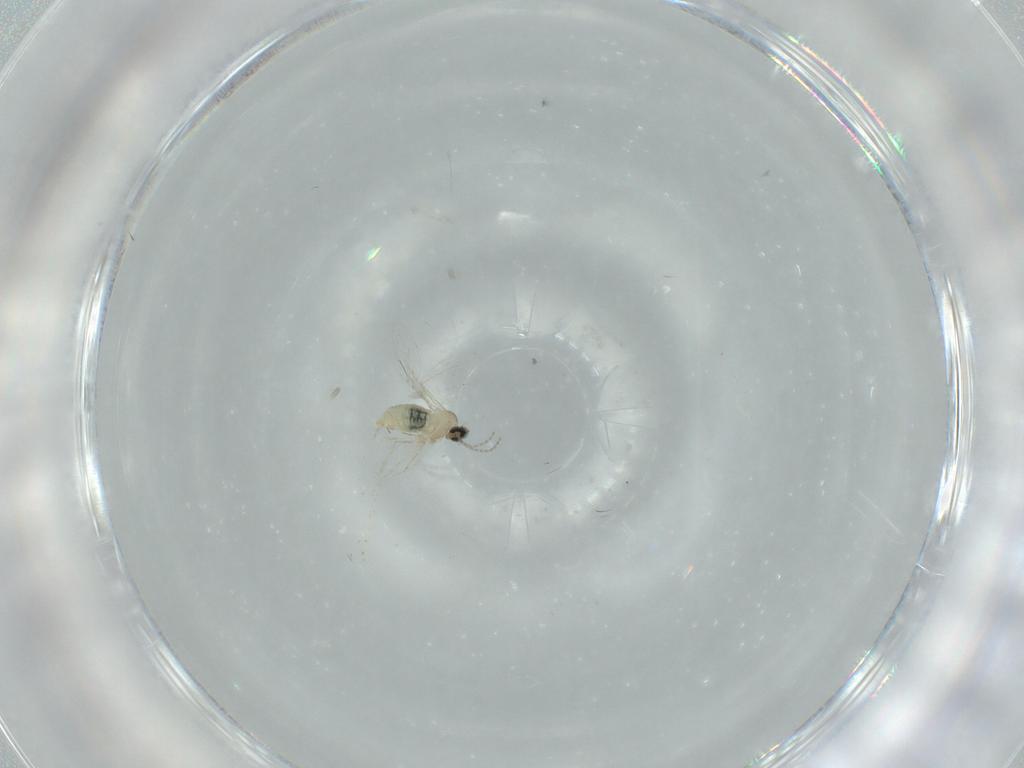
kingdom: Animalia
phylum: Arthropoda
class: Insecta
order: Diptera
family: Cecidomyiidae
